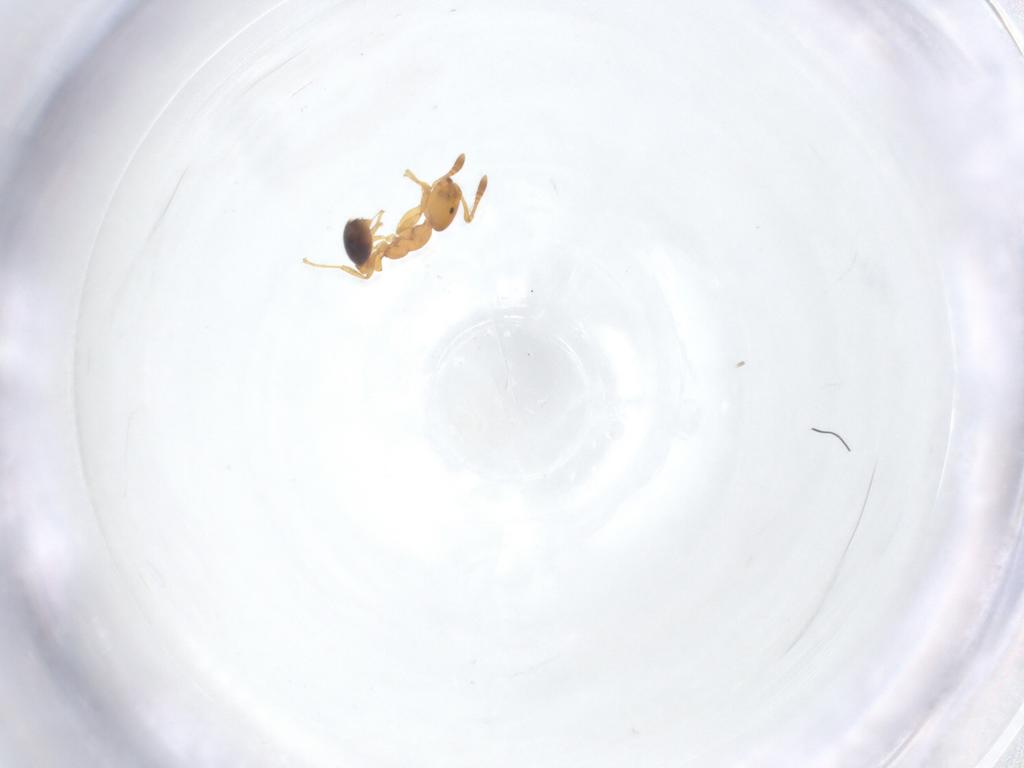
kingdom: Animalia
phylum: Arthropoda
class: Insecta
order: Hymenoptera
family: Formicidae
